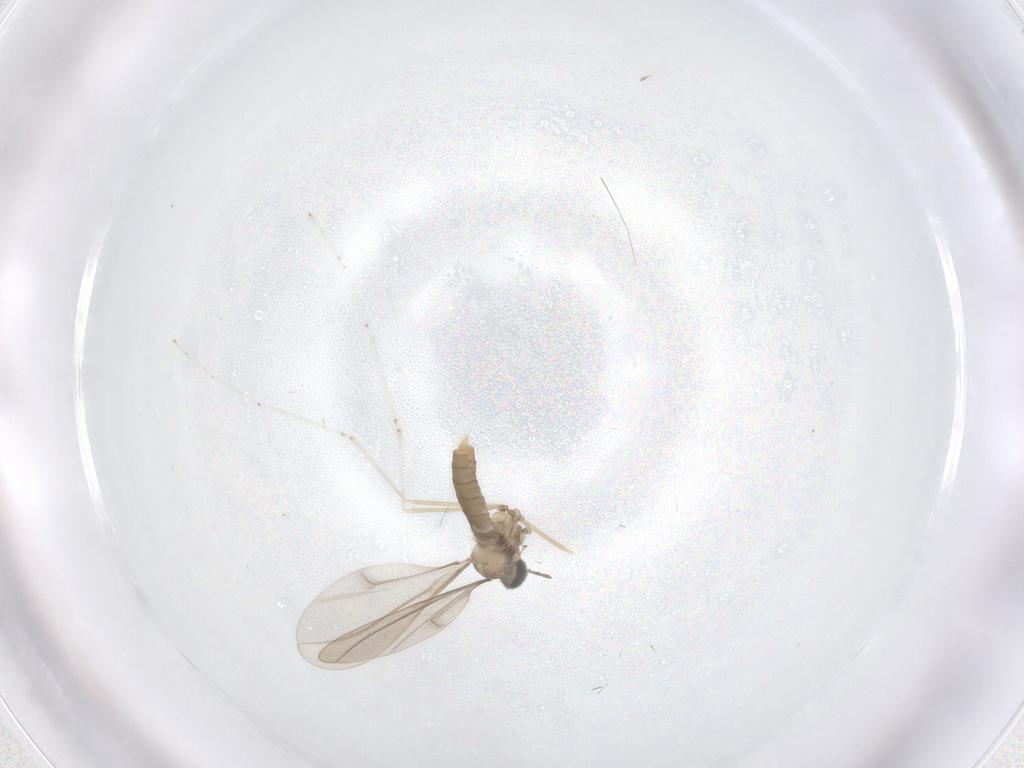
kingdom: Animalia
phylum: Arthropoda
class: Insecta
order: Diptera
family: Cecidomyiidae
